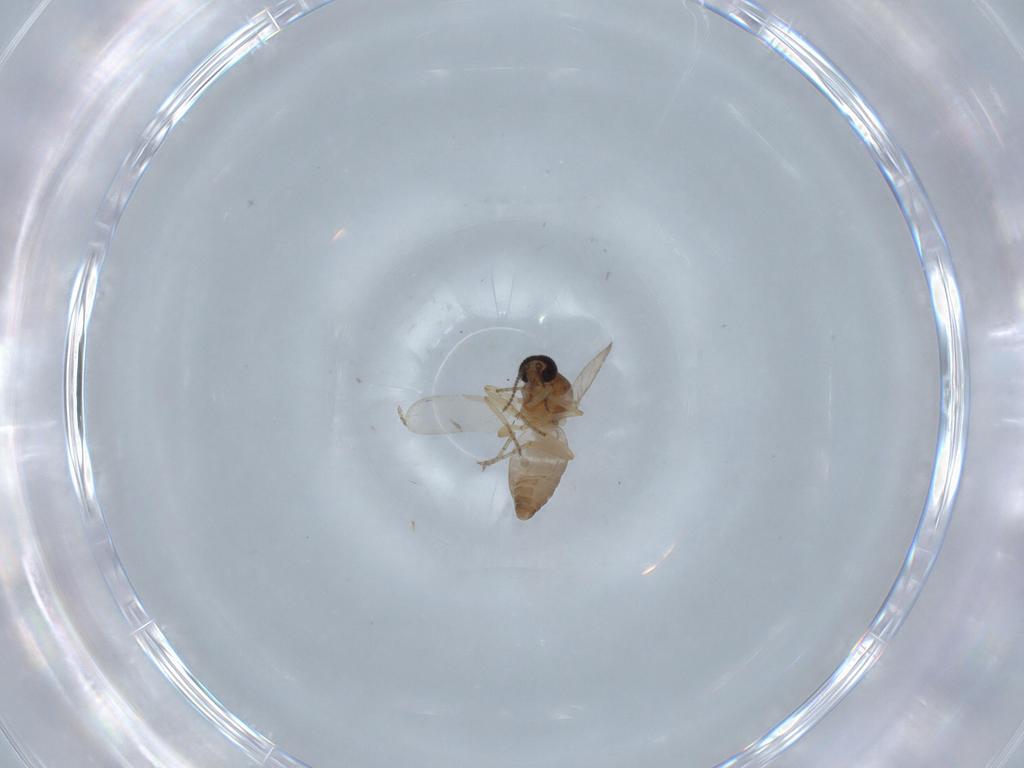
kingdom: Animalia
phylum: Arthropoda
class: Insecta
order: Diptera
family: Ceratopogonidae
